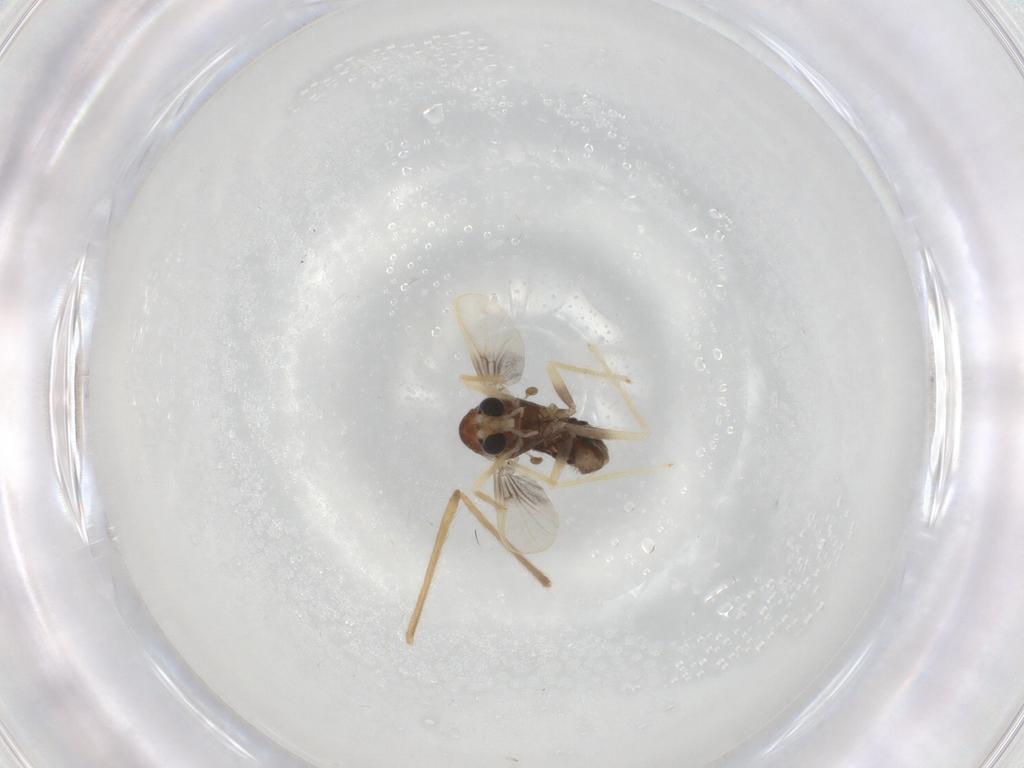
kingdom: Animalia
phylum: Arthropoda
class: Insecta
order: Diptera
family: Chironomidae
